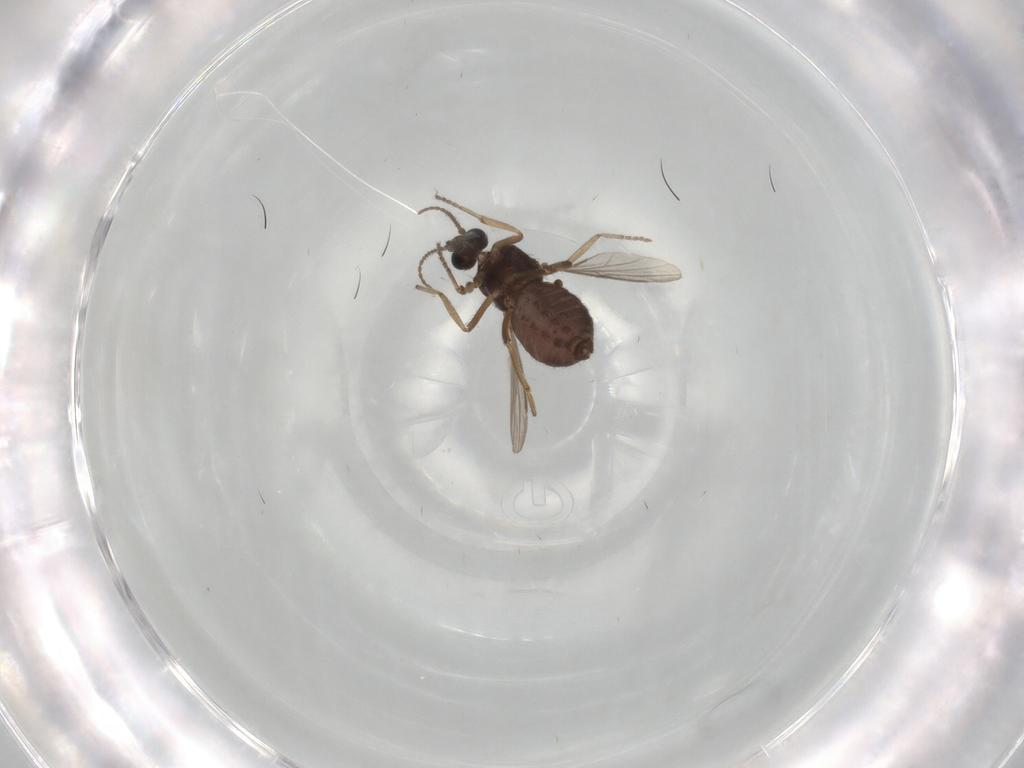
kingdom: Animalia
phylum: Arthropoda
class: Insecta
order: Diptera
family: Ceratopogonidae
